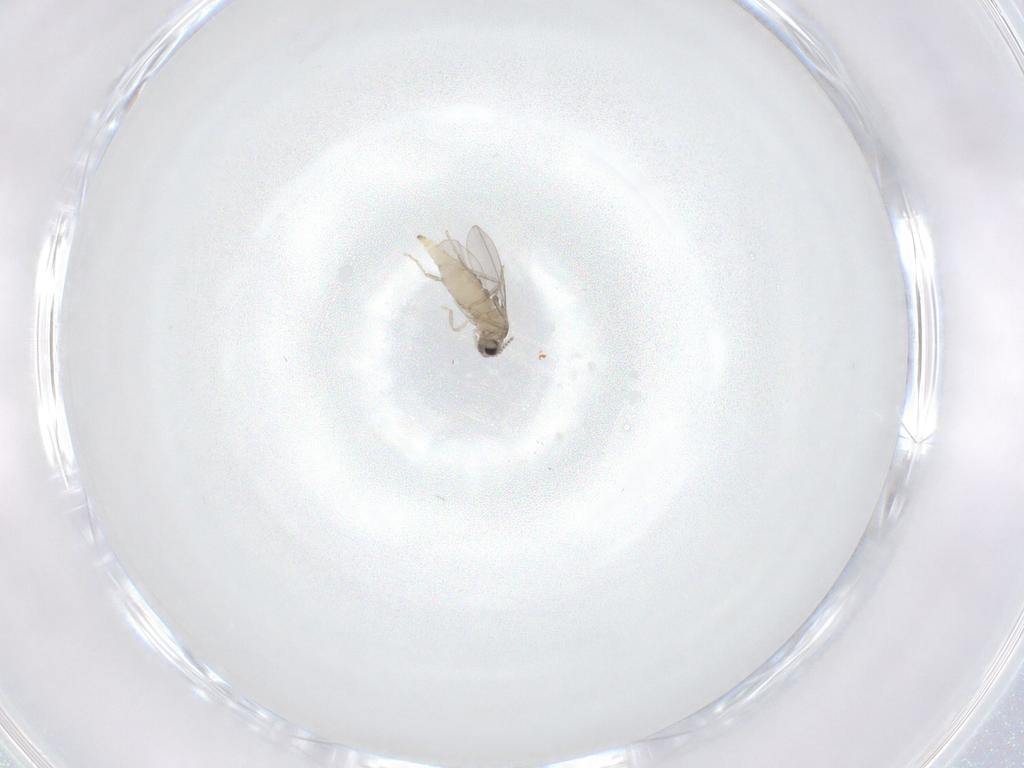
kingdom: Animalia
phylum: Arthropoda
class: Insecta
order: Diptera
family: Cecidomyiidae
